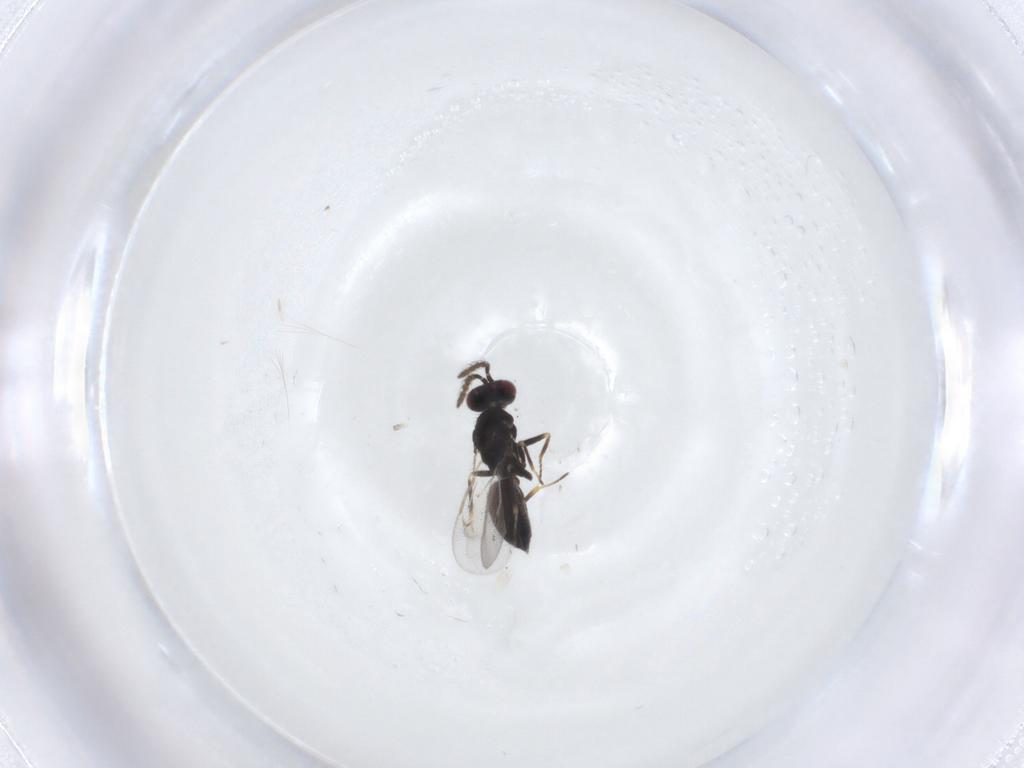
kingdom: Animalia
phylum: Arthropoda
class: Insecta
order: Hymenoptera
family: Eulophidae
